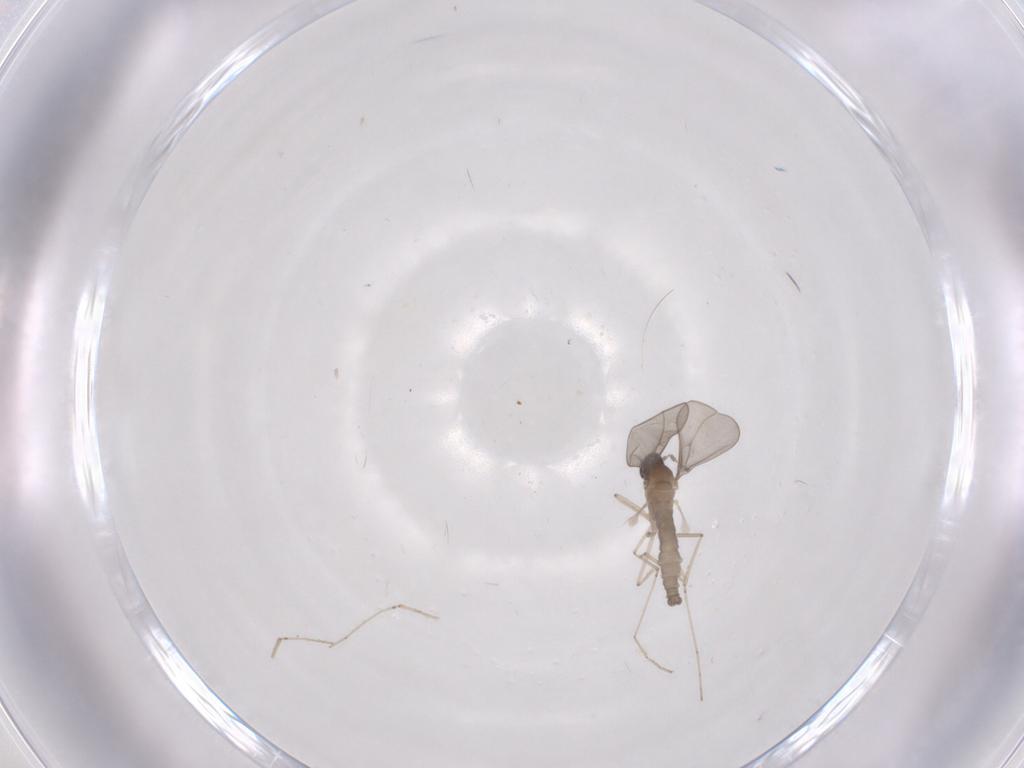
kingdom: Animalia
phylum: Arthropoda
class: Insecta
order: Diptera
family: Cecidomyiidae
